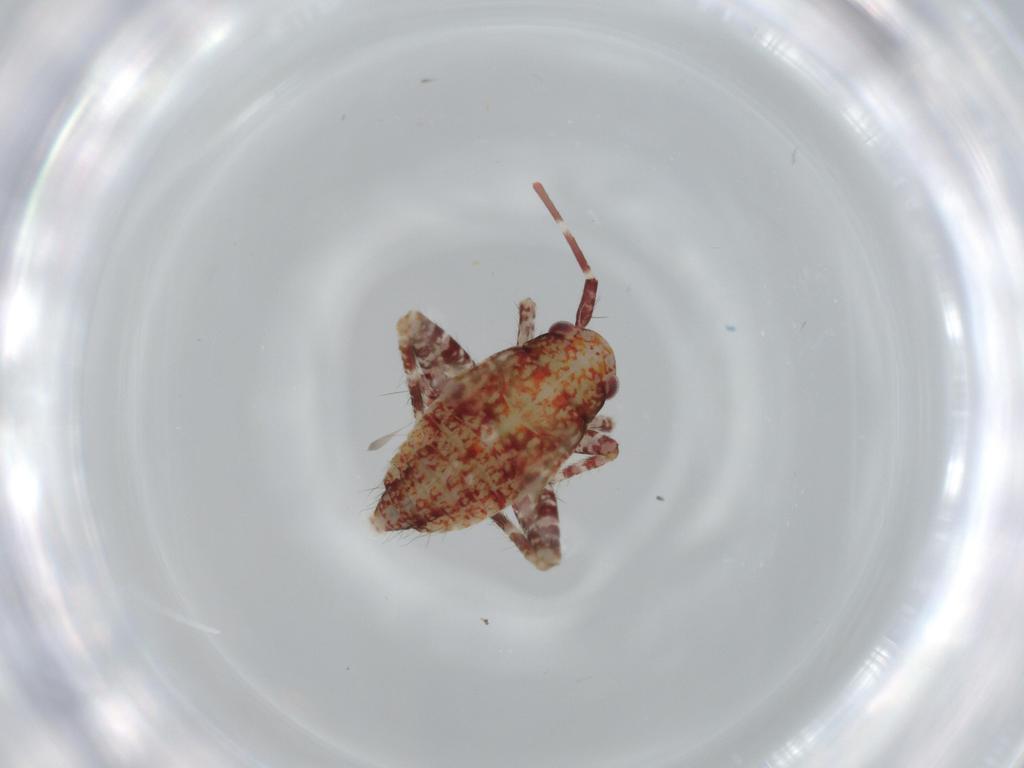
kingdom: Animalia
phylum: Arthropoda
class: Insecta
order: Hemiptera
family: Miridae
